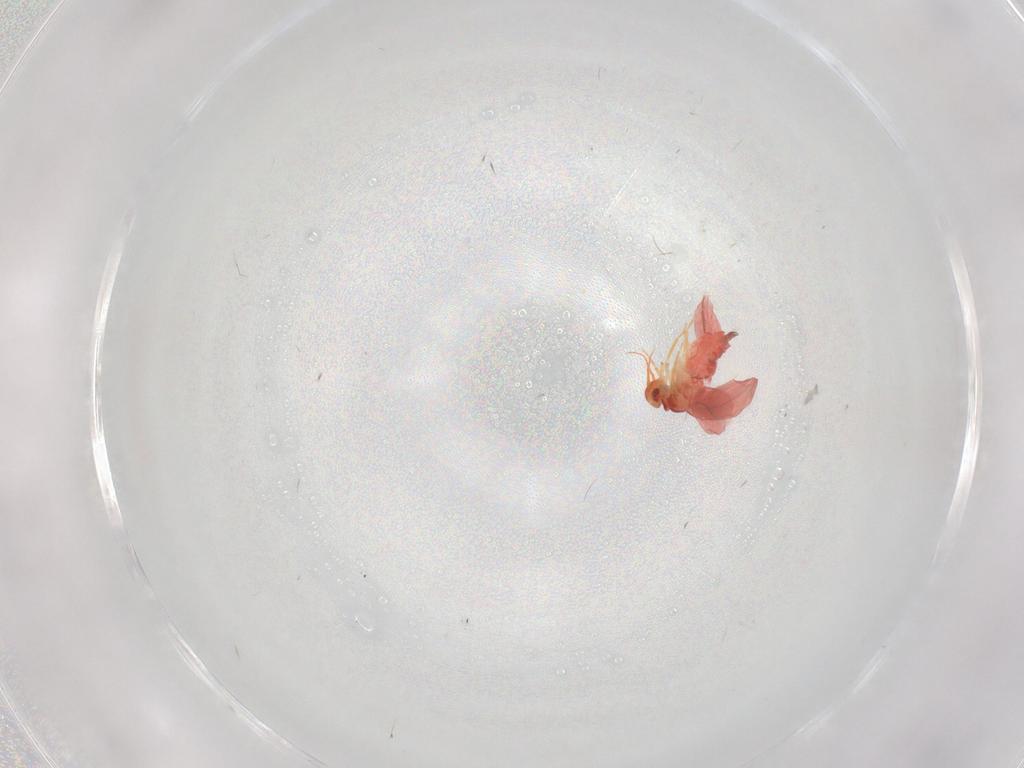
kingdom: Animalia
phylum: Arthropoda
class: Insecta
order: Hemiptera
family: Aleyrodidae
